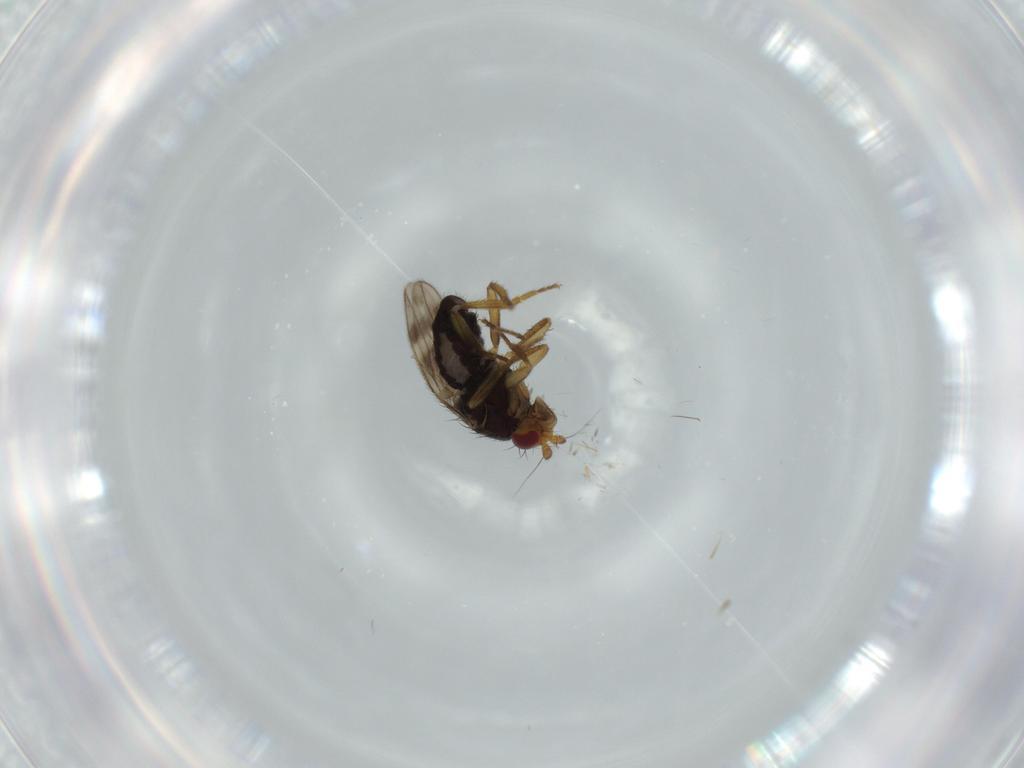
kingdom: Animalia
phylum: Arthropoda
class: Insecta
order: Diptera
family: Sphaeroceridae
